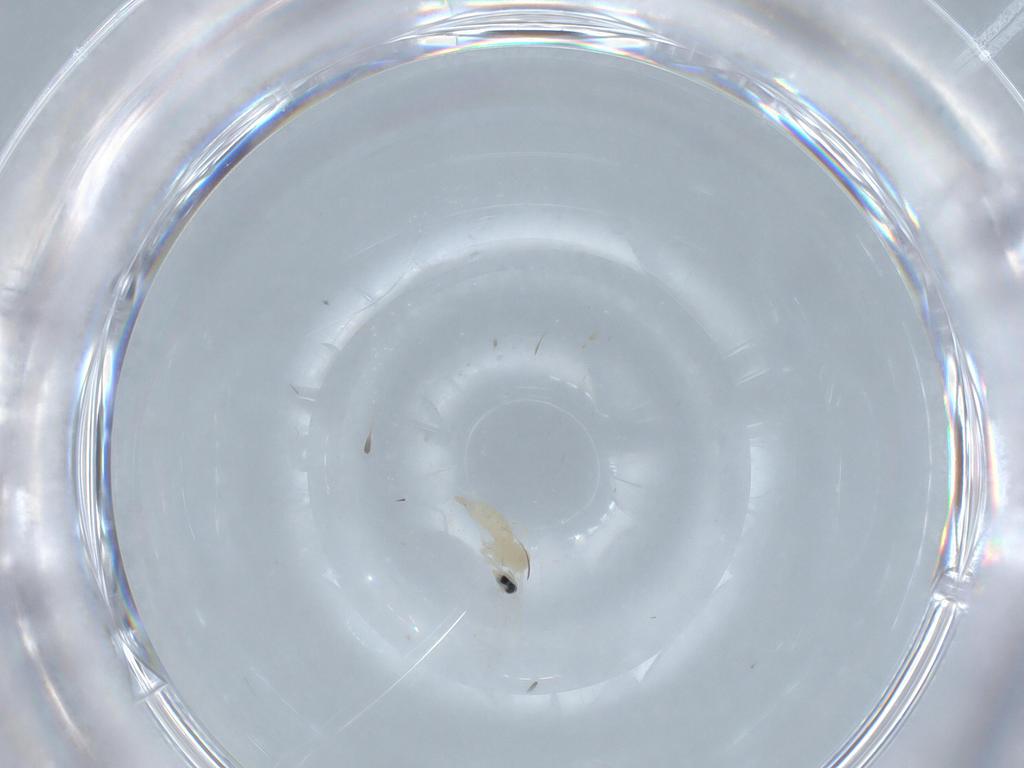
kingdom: Animalia
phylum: Arthropoda
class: Insecta
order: Diptera
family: Cecidomyiidae
